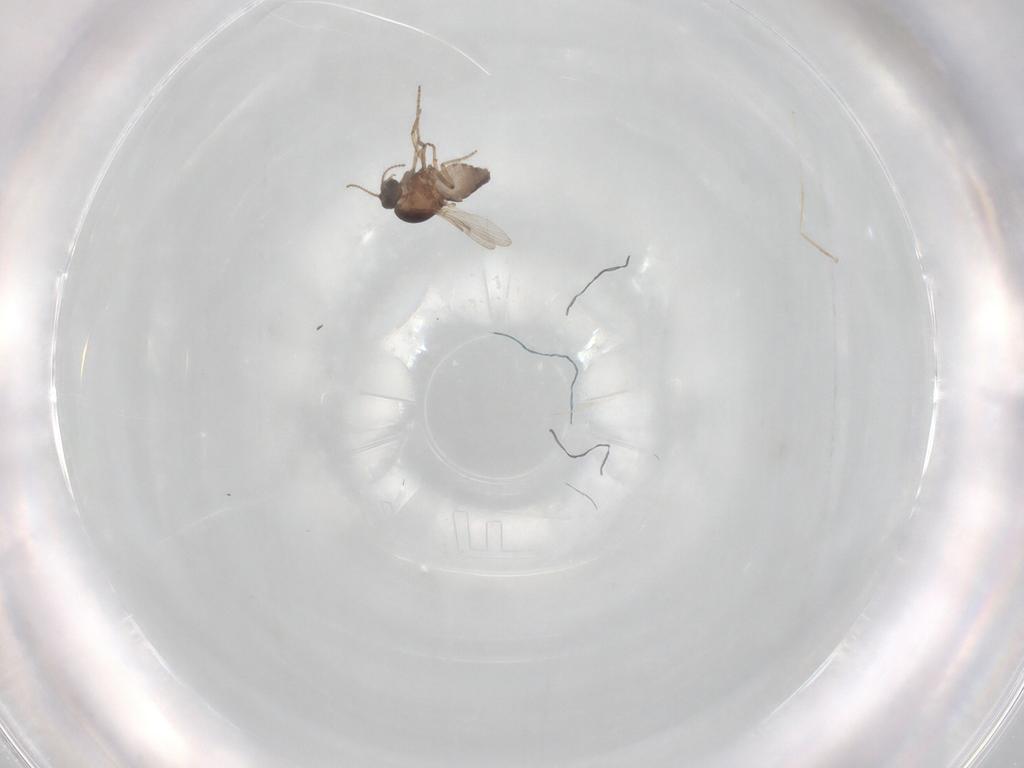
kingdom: Animalia
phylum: Arthropoda
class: Insecta
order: Diptera
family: Ceratopogonidae
